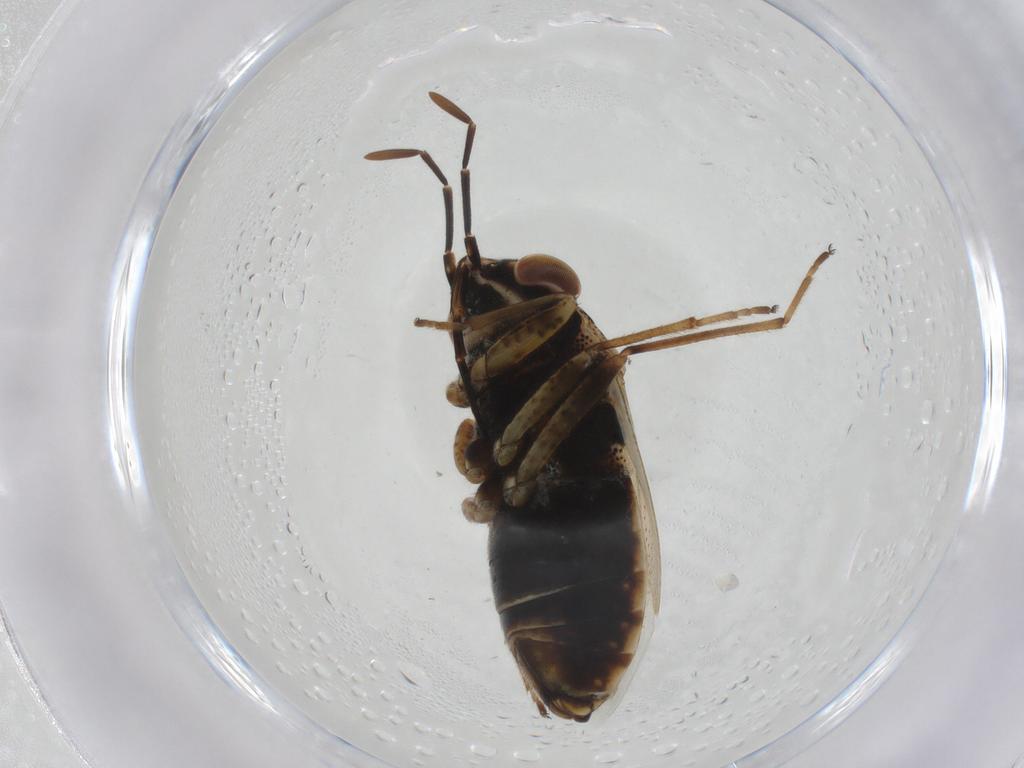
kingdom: Animalia
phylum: Arthropoda
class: Insecta
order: Hemiptera
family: Geocoridae
